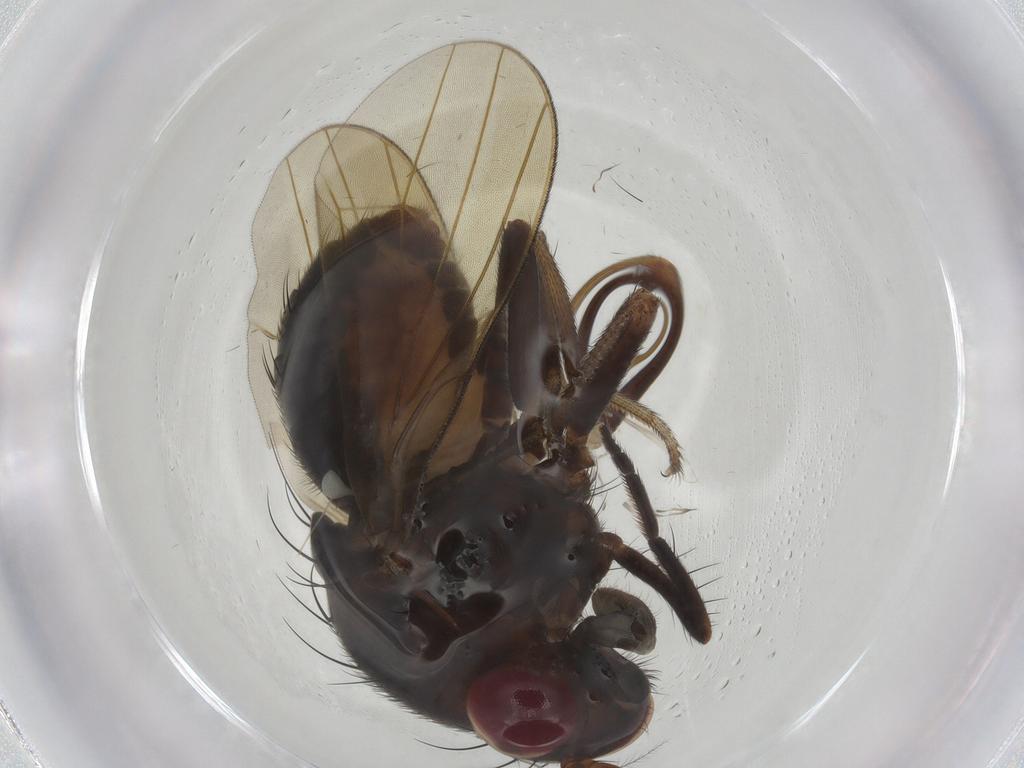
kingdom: Animalia
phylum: Arthropoda
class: Insecta
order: Diptera
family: Cecidomyiidae
